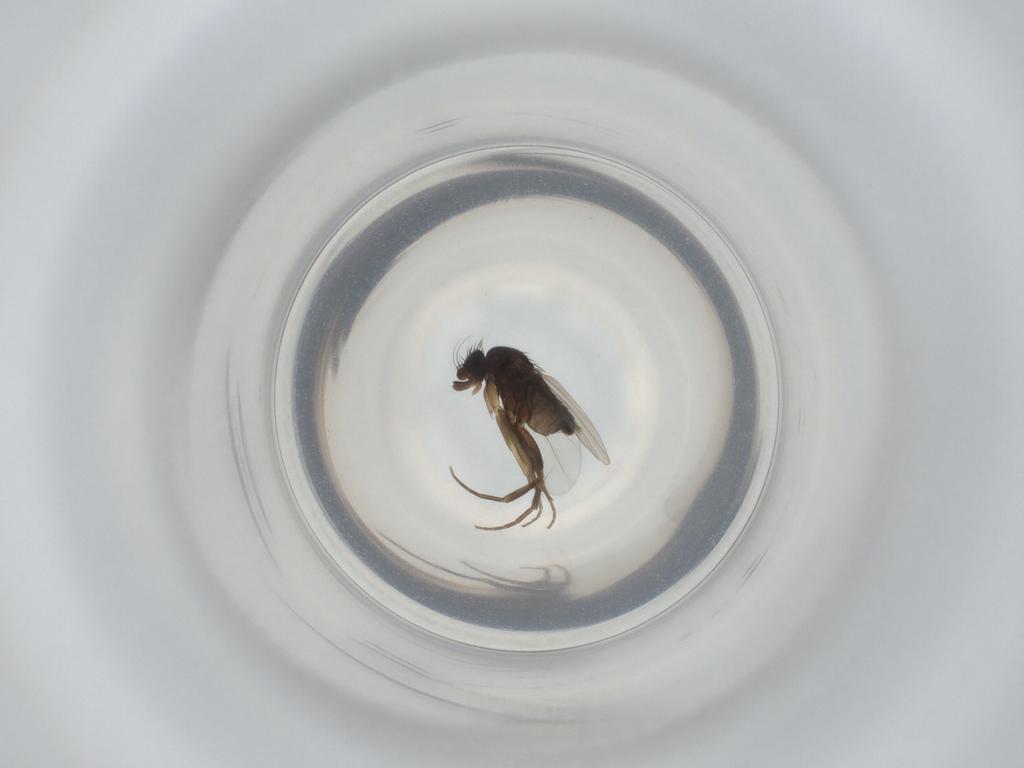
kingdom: Animalia
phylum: Arthropoda
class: Insecta
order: Diptera
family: Phoridae
